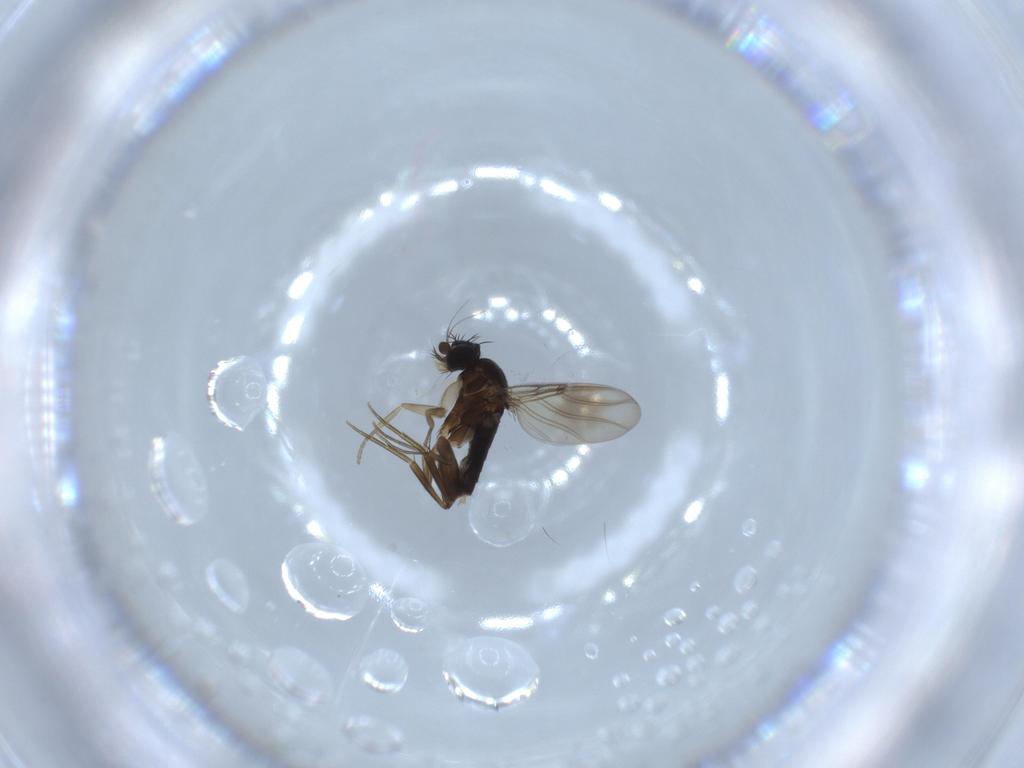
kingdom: Animalia
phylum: Arthropoda
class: Insecta
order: Diptera
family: Phoridae
